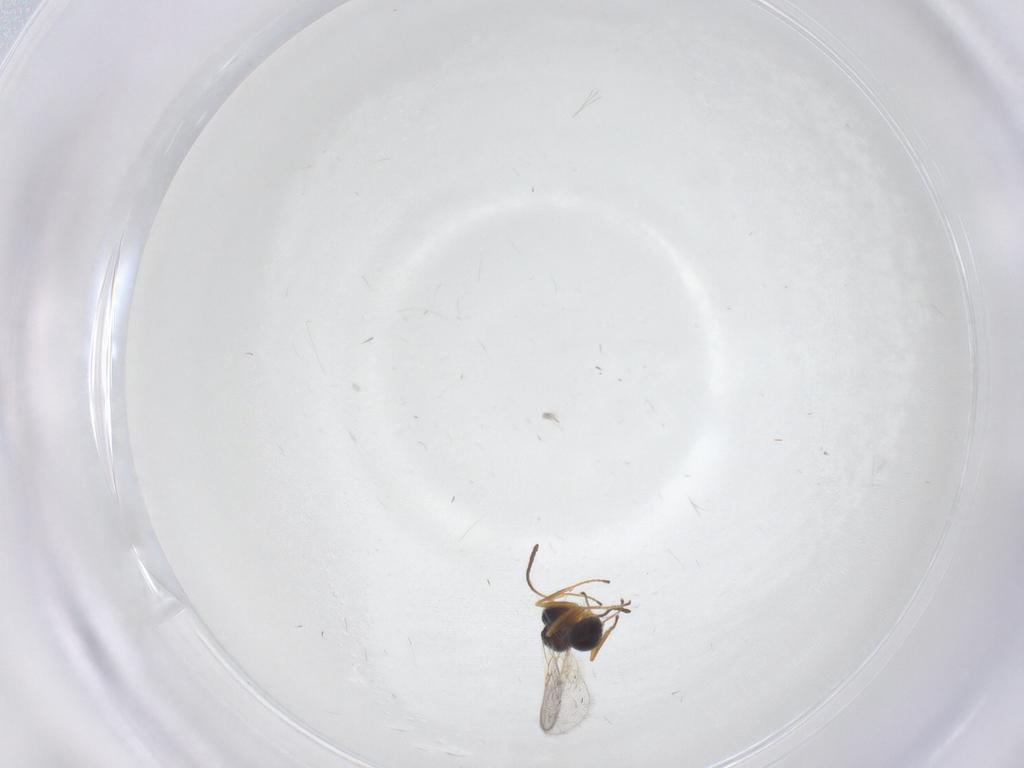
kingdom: Animalia
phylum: Arthropoda
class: Insecta
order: Hymenoptera
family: Figitidae
